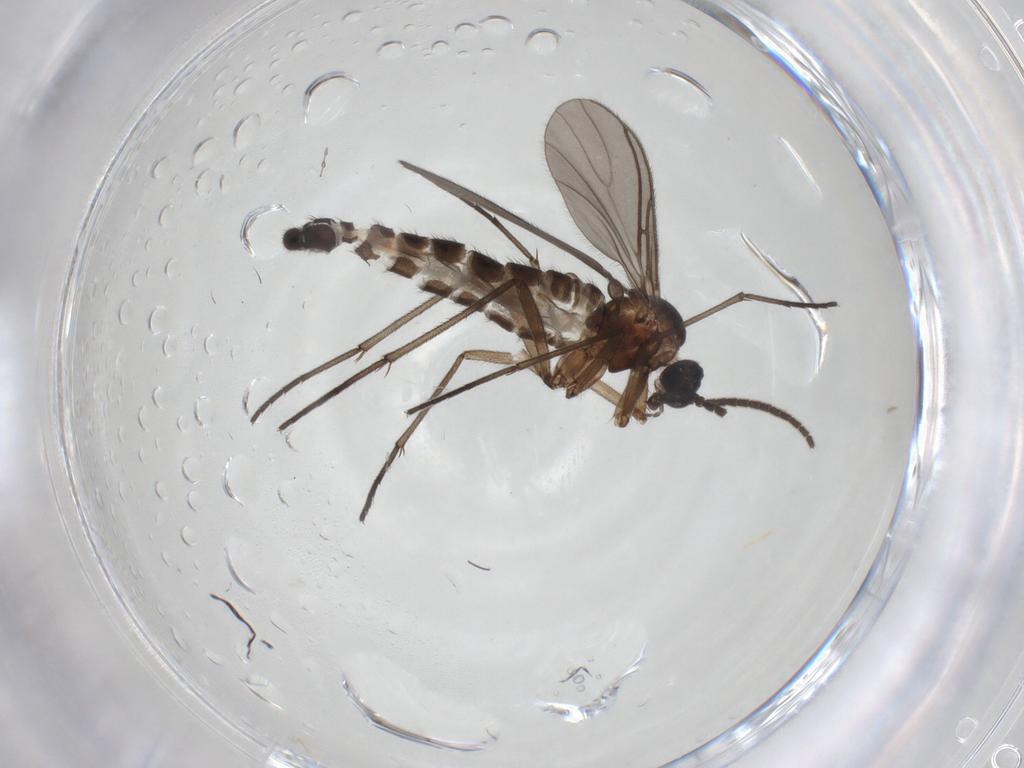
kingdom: Animalia
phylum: Arthropoda
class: Insecta
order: Diptera
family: Sciaridae
